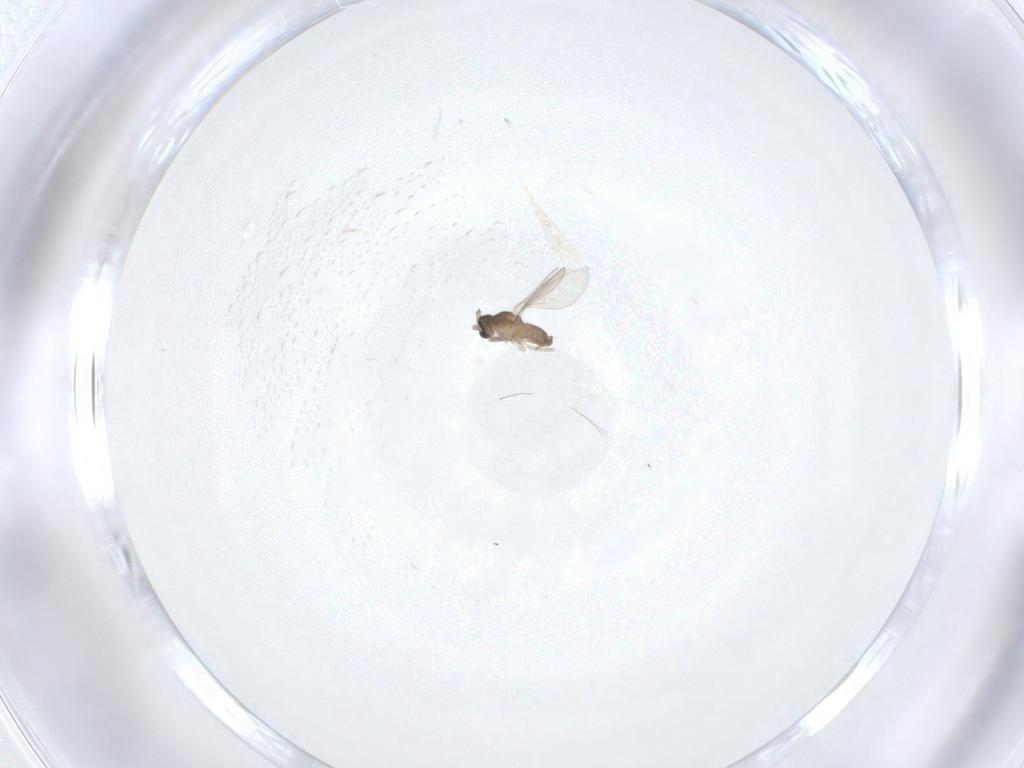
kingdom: Animalia
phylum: Arthropoda
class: Insecta
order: Diptera
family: Cecidomyiidae
